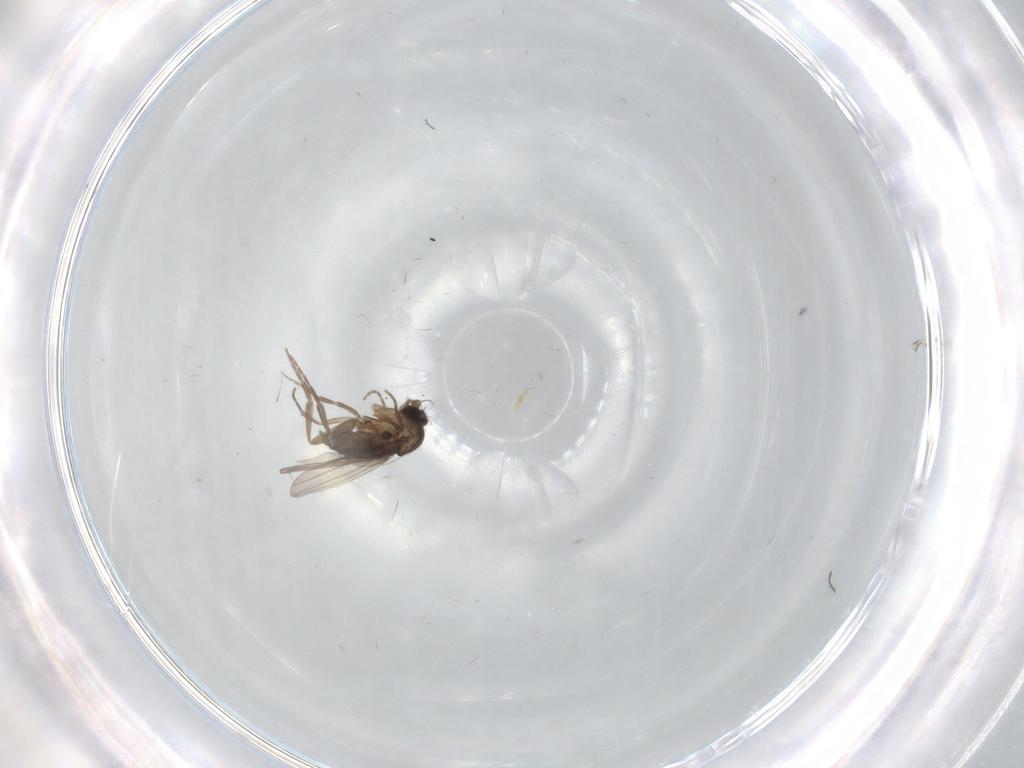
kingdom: Animalia
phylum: Arthropoda
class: Insecta
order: Diptera
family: Phoridae
